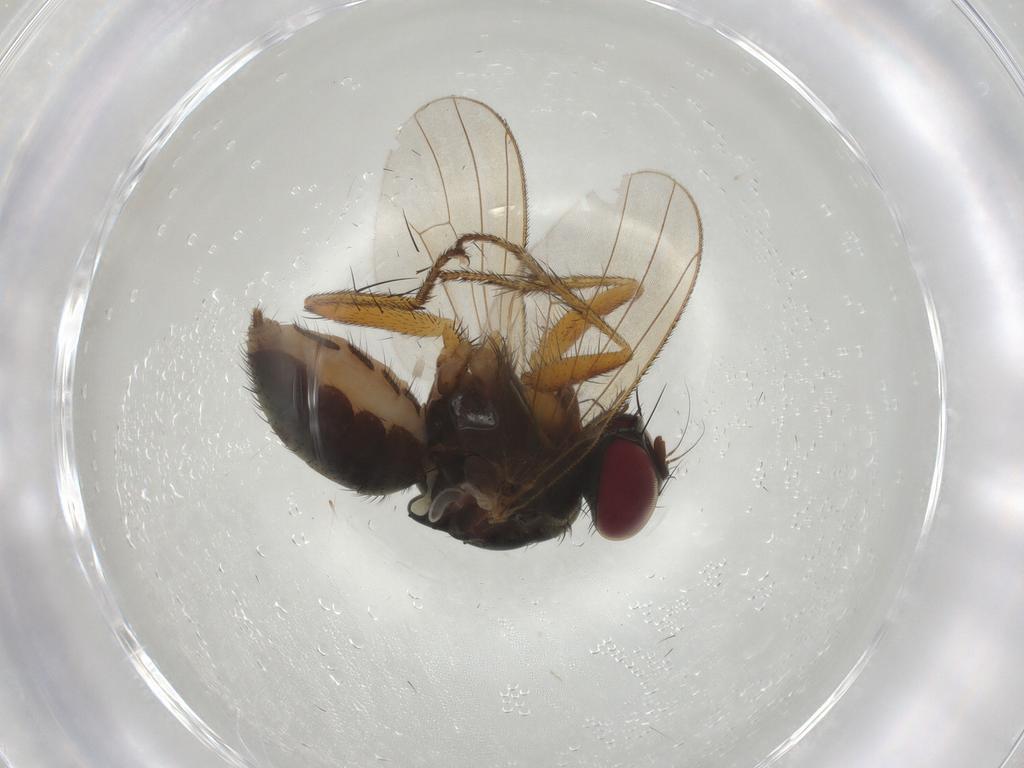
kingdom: Animalia
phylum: Arthropoda
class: Insecta
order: Diptera
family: Muscidae
